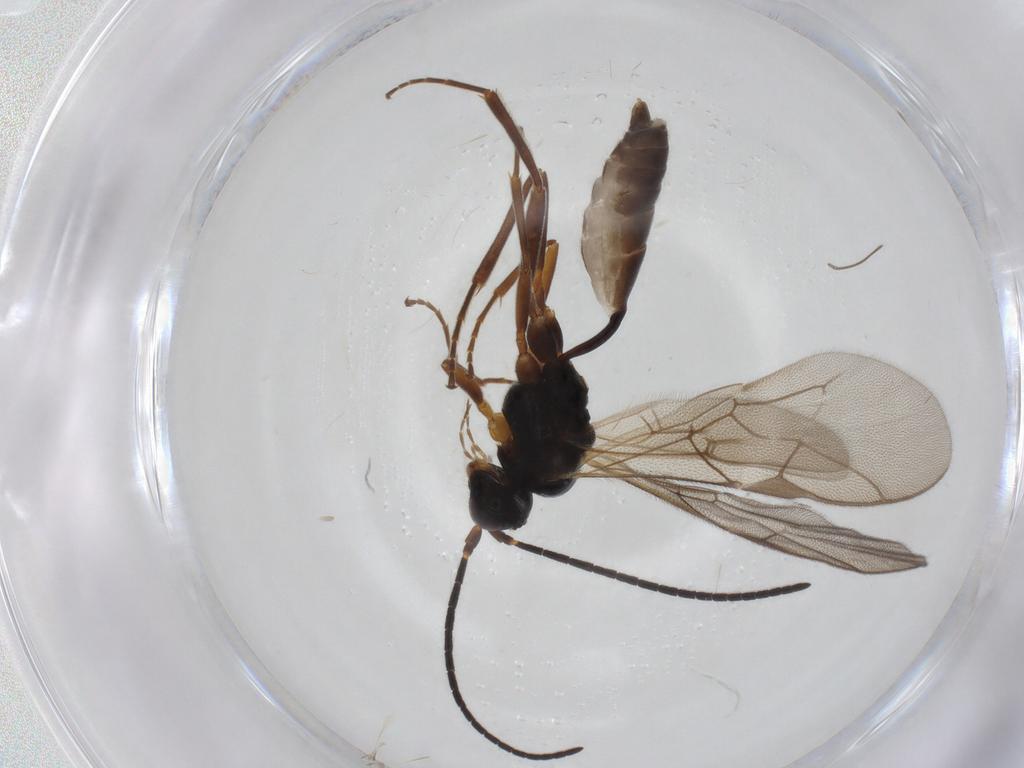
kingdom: Animalia
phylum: Arthropoda
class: Insecta
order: Hymenoptera
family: Ichneumonidae
